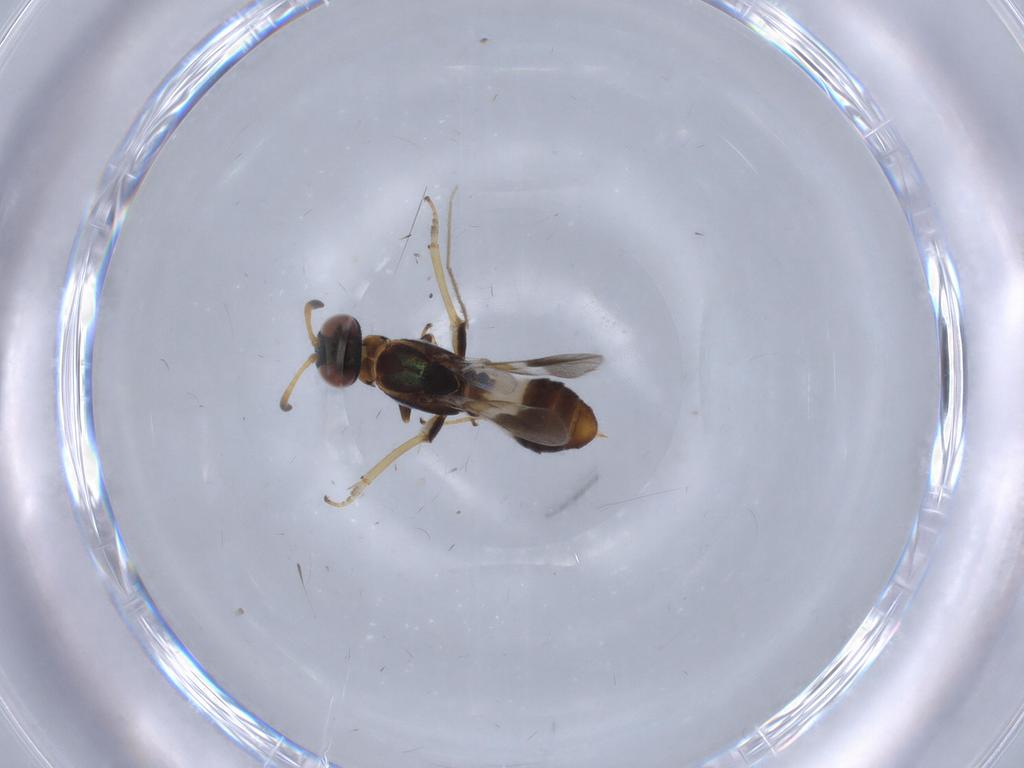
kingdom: Animalia
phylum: Arthropoda
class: Insecta
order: Hymenoptera
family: Eupelmidae
